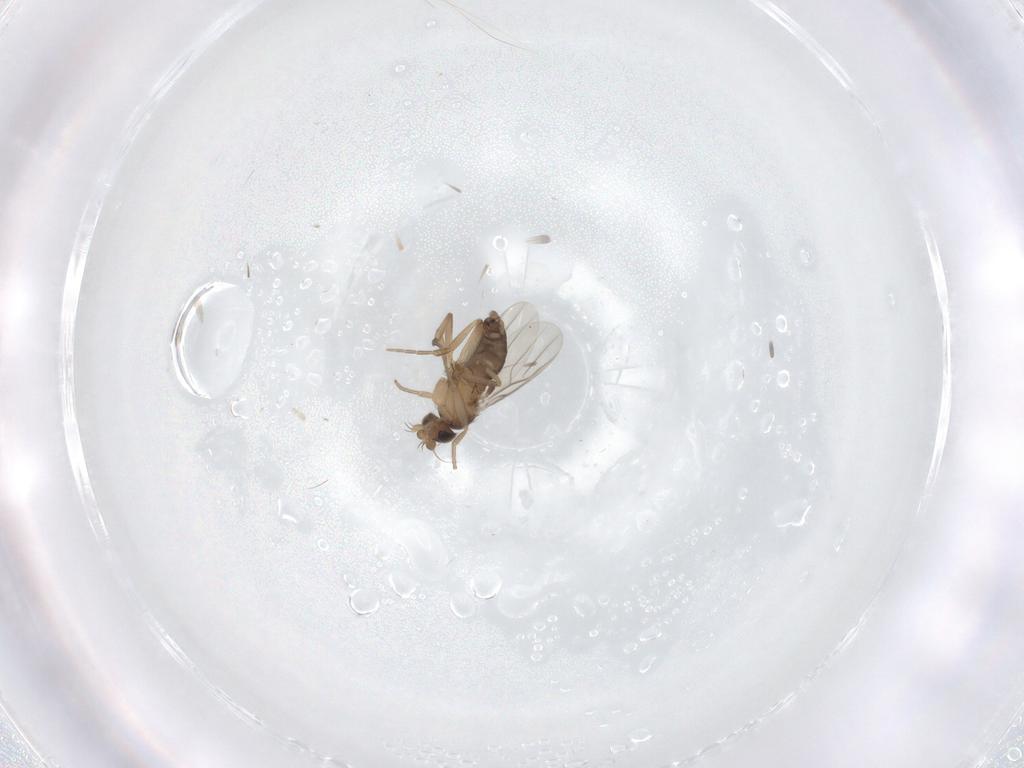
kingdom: Animalia
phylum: Arthropoda
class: Insecta
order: Diptera
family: Phoridae
